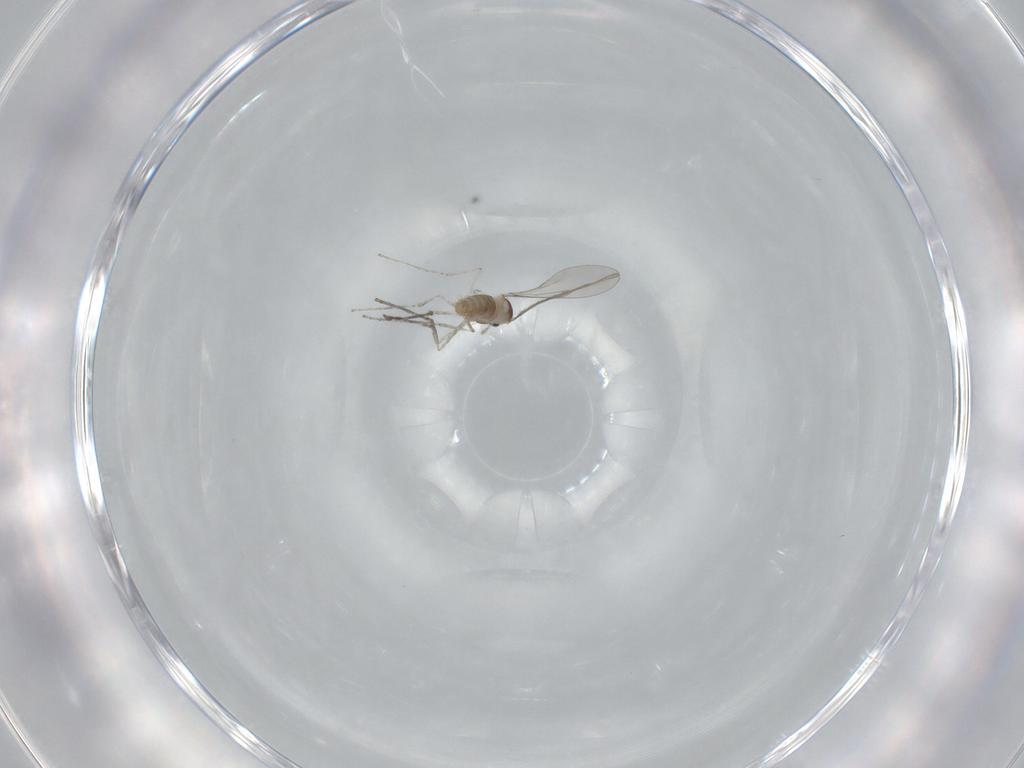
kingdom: Animalia
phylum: Arthropoda
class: Insecta
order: Diptera
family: Cecidomyiidae
